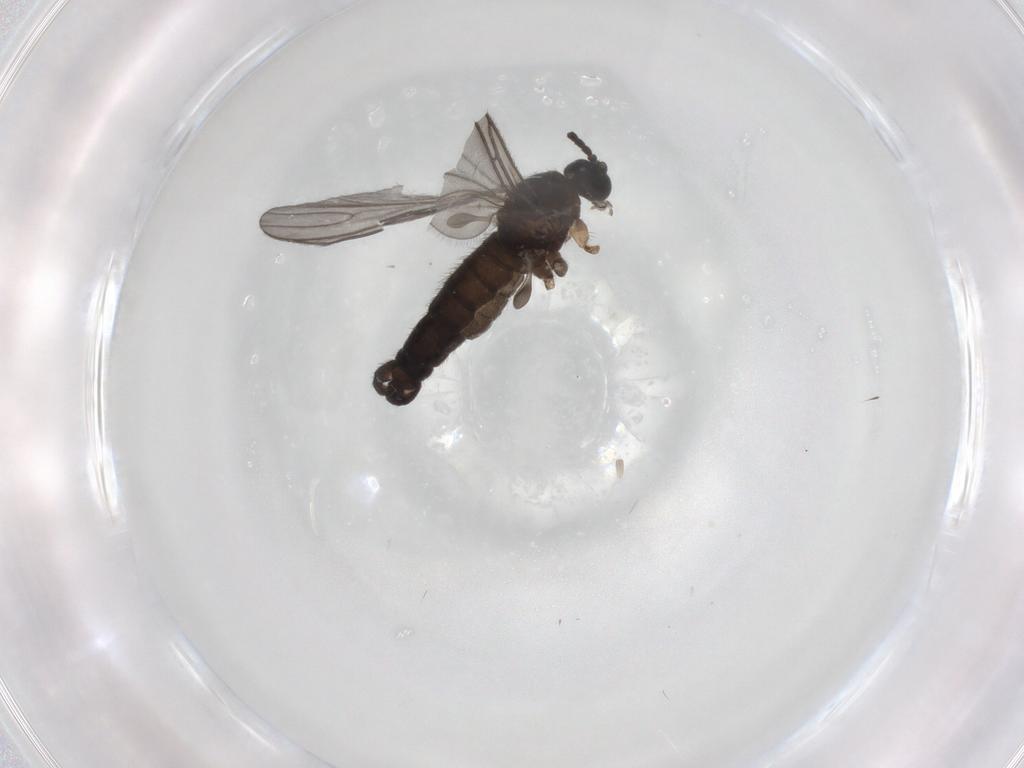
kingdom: Animalia
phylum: Arthropoda
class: Insecta
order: Diptera
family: Sciaridae
